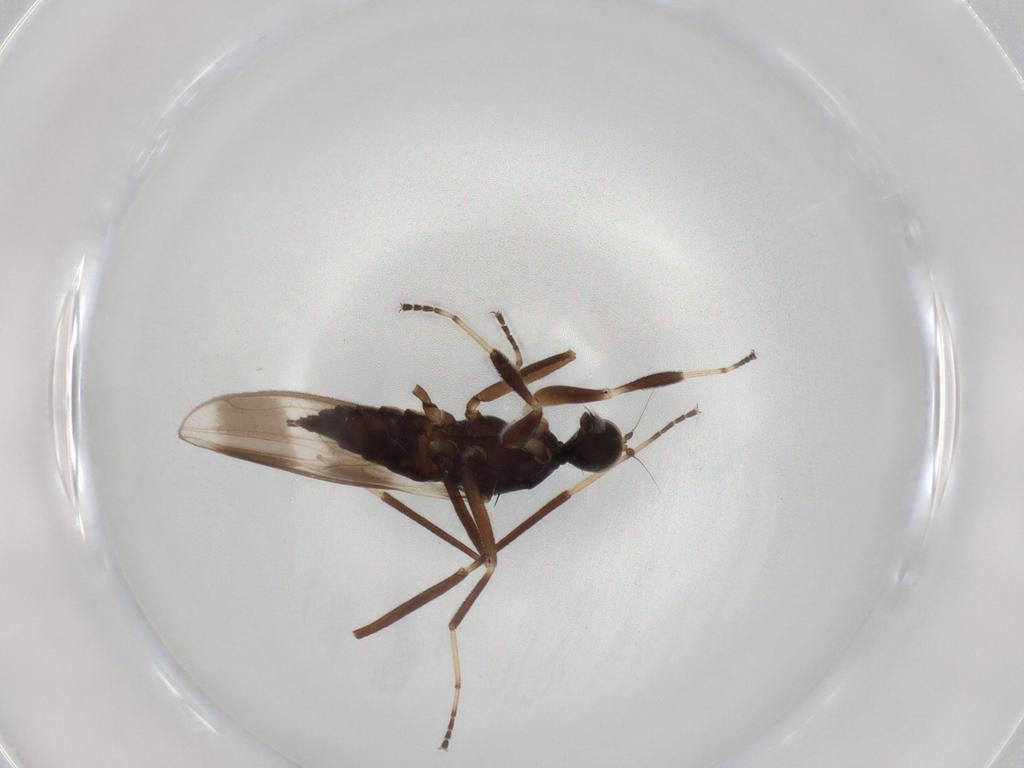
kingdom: Animalia
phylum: Arthropoda
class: Insecta
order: Diptera
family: Hybotidae
